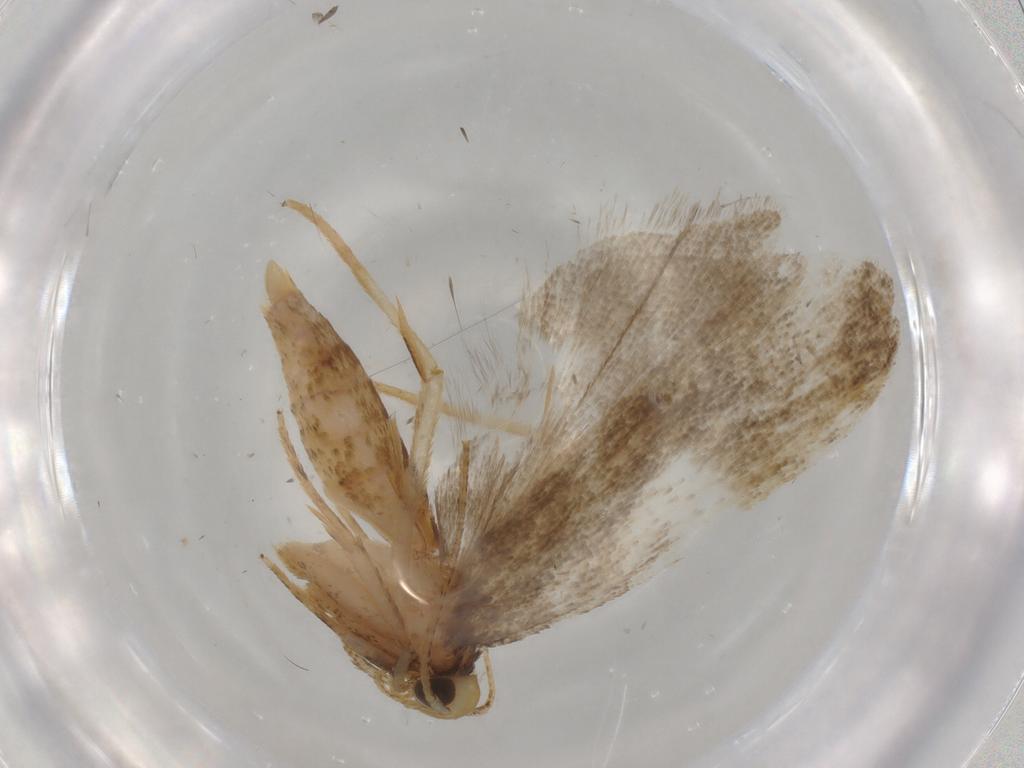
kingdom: Animalia
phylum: Arthropoda
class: Insecta
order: Lepidoptera
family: Autostichidae
